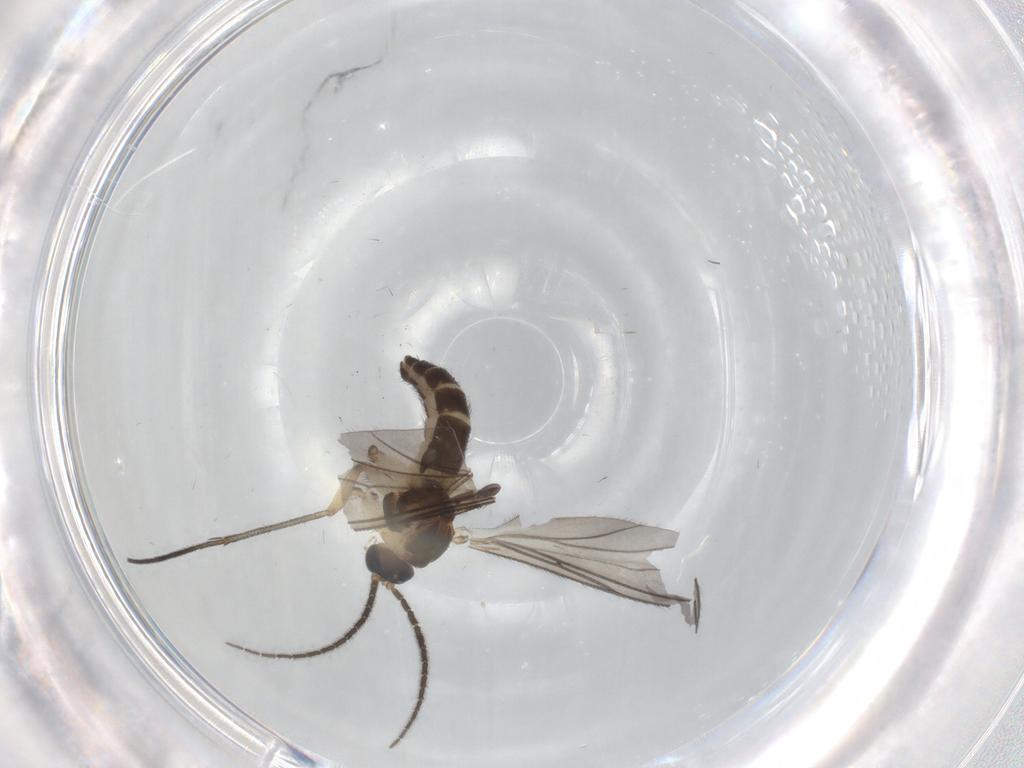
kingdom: Animalia
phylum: Arthropoda
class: Insecta
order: Diptera
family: Sciaridae
